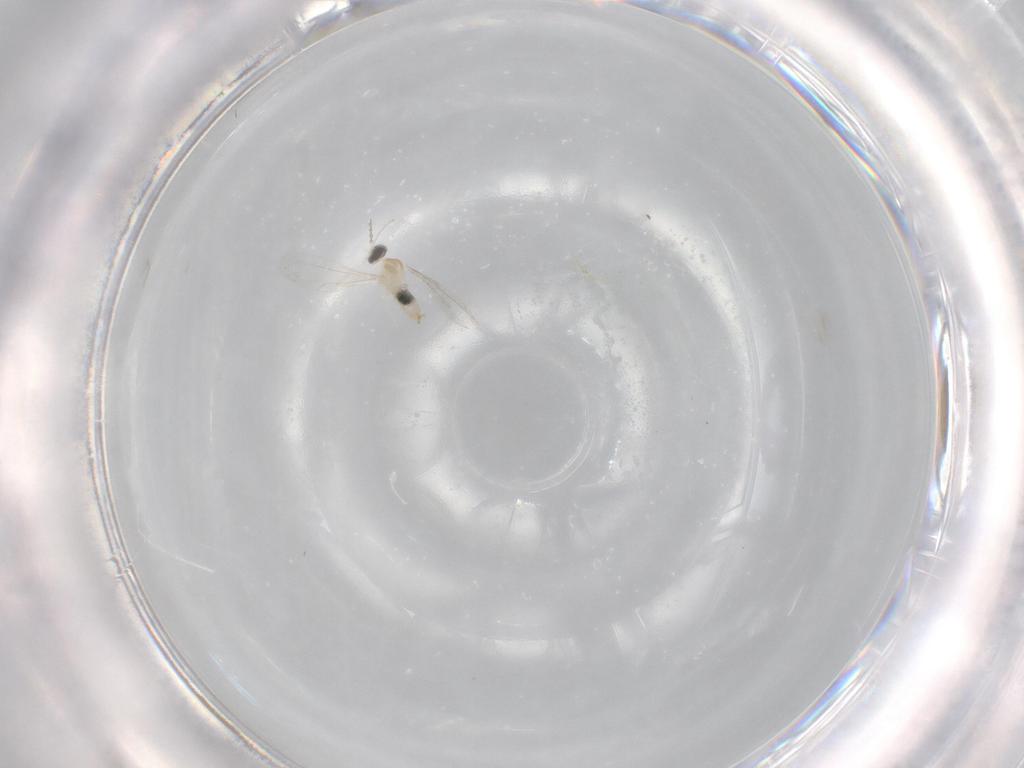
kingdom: Animalia
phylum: Arthropoda
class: Insecta
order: Diptera
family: Cecidomyiidae
